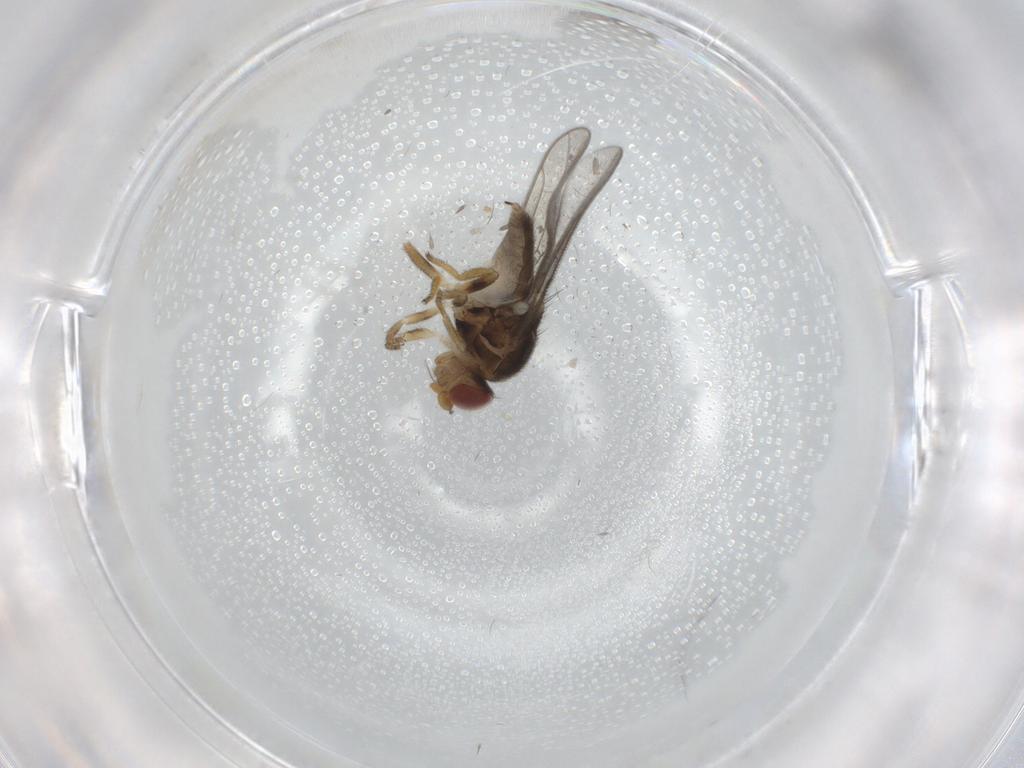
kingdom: Animalia
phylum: Arthropoda
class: Insecta
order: Diptera
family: Chloropidae
